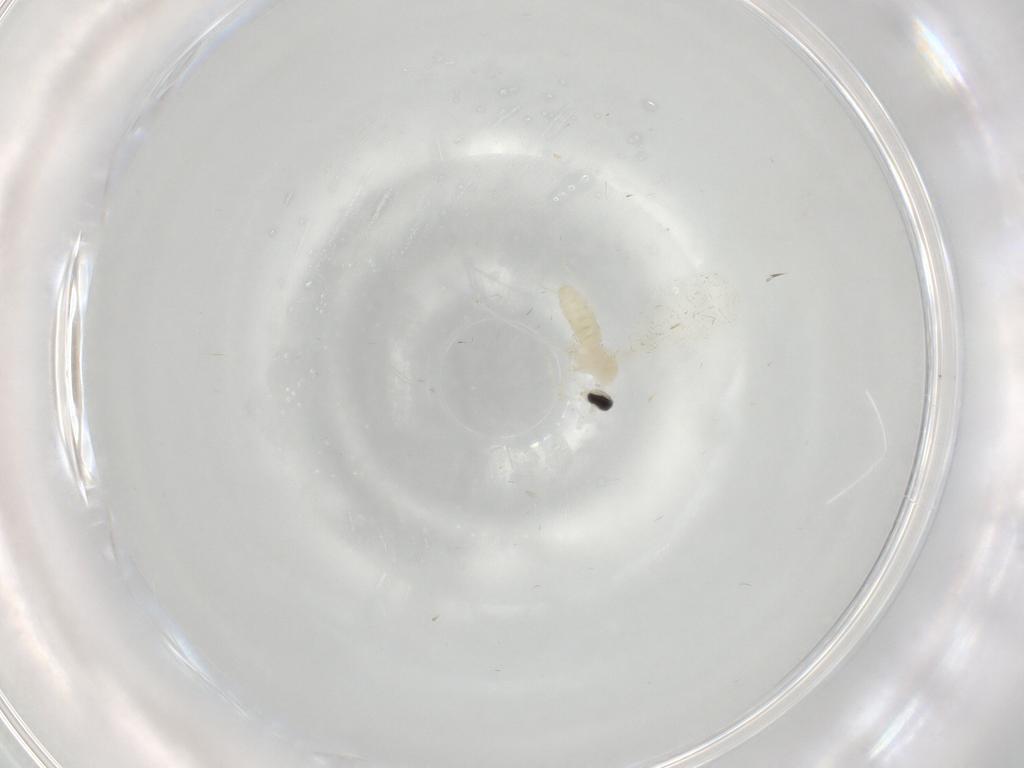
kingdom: Animalia
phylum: Arthropoda
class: Insecta
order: Diptera
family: Cecidomyiidae
